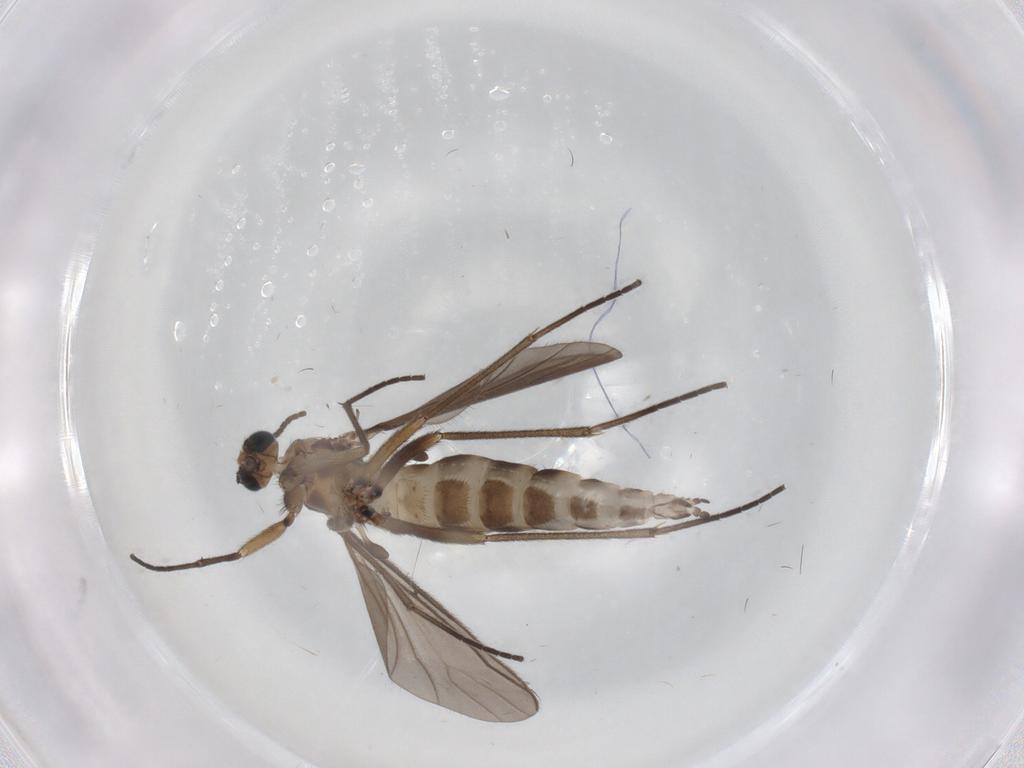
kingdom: Animalia
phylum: Arthropoda
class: Insecta
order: Diptera
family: Sciaridae
